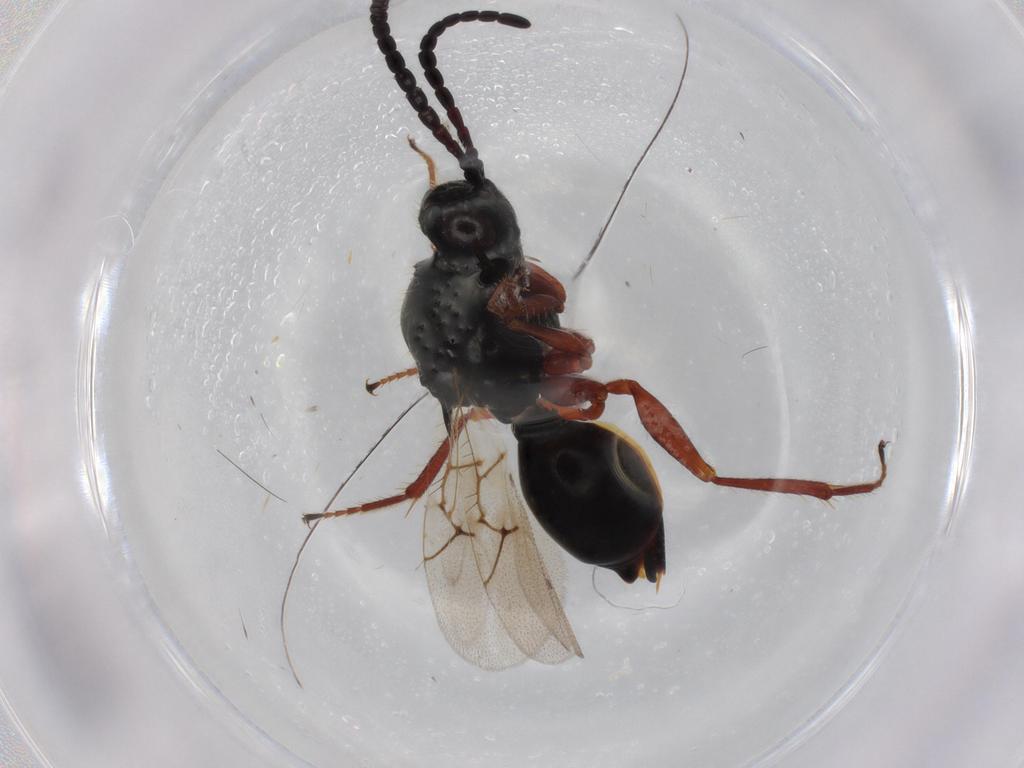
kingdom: Animalia
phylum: Arthropoda
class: Insecta
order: Hymenoptera
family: Figitidae
